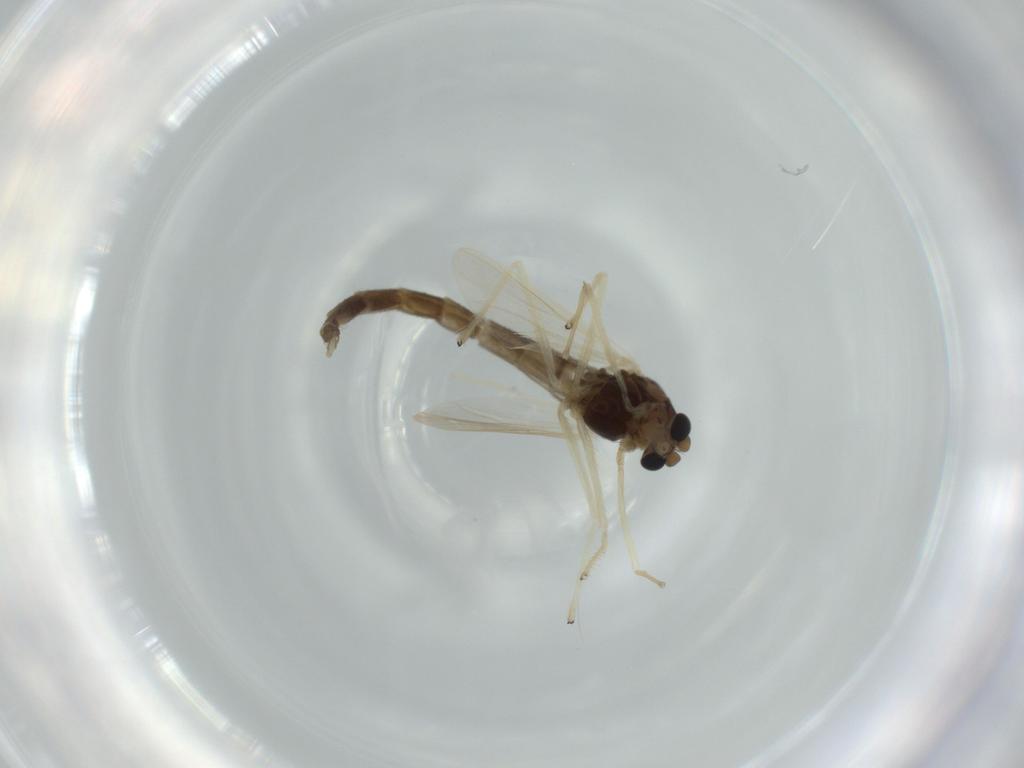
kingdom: Animalia
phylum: Arthropoda
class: Insecta
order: Diptera
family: Chironomidae
